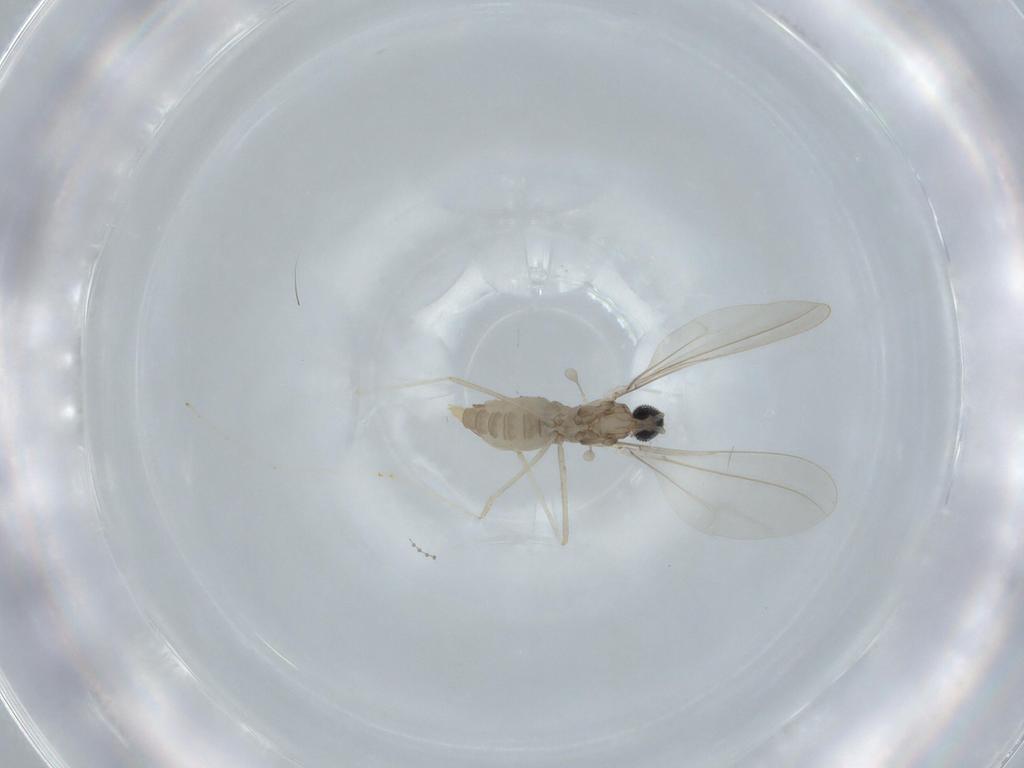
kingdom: Animalia
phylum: Arthropoda
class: Insecta
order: Diptera
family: Cecidomyiidae
